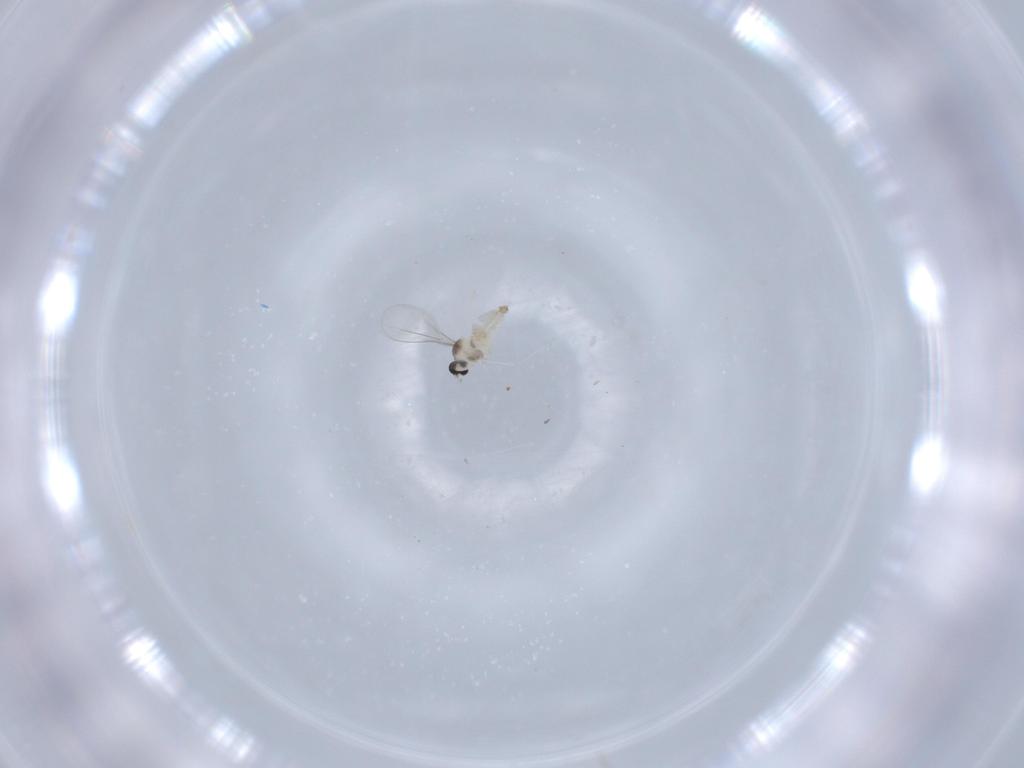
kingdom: Animalia
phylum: Arthropoda
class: Insecta
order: Diptera
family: Cecidomyiidae
